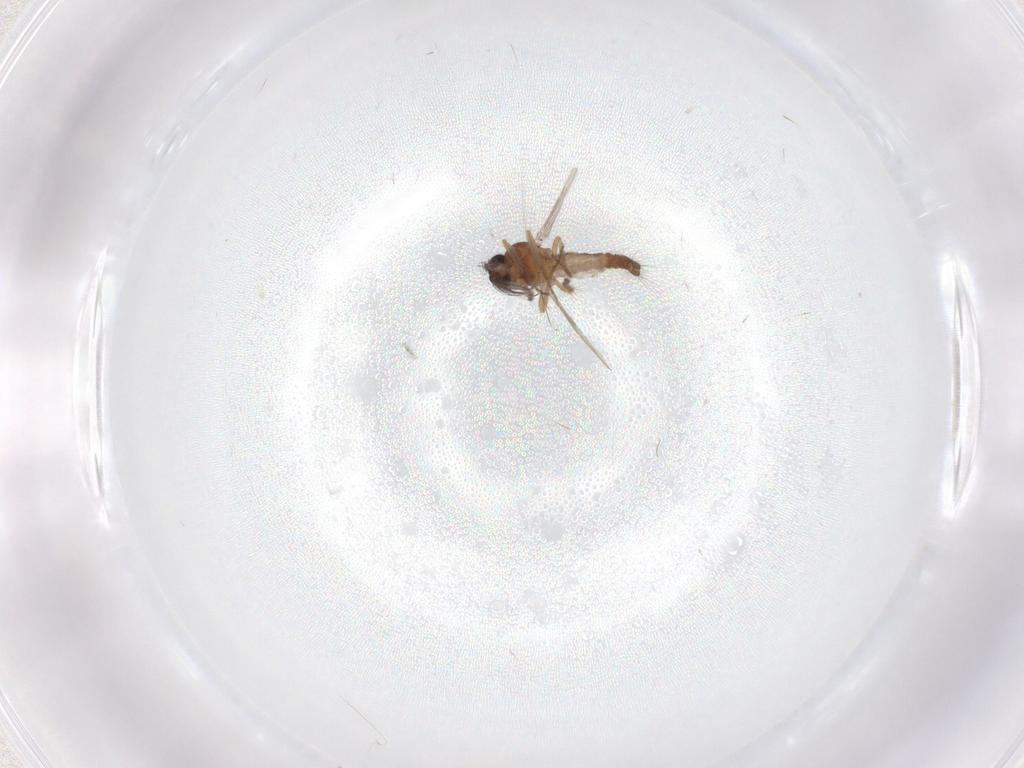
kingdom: Animalia
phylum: Arthropoda
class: Insecta
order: Diptera
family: Ceratopogonidae
